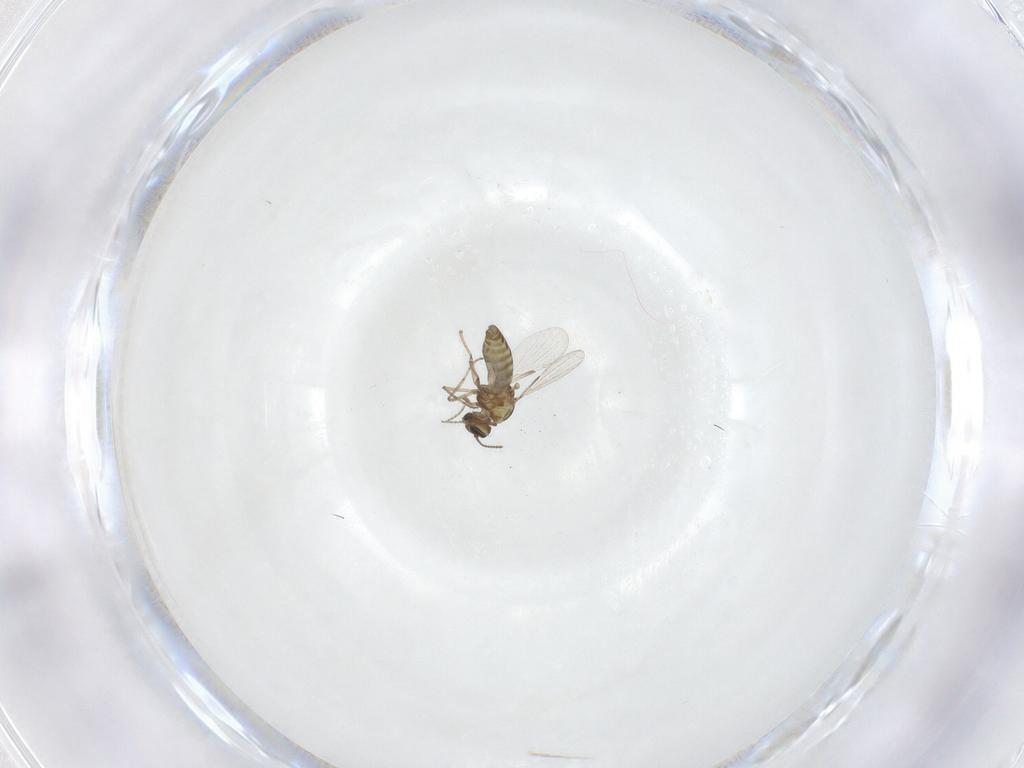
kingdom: Animalia
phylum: Arthropoda
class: Insecta
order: Diptera
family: Ceratopogonidae
